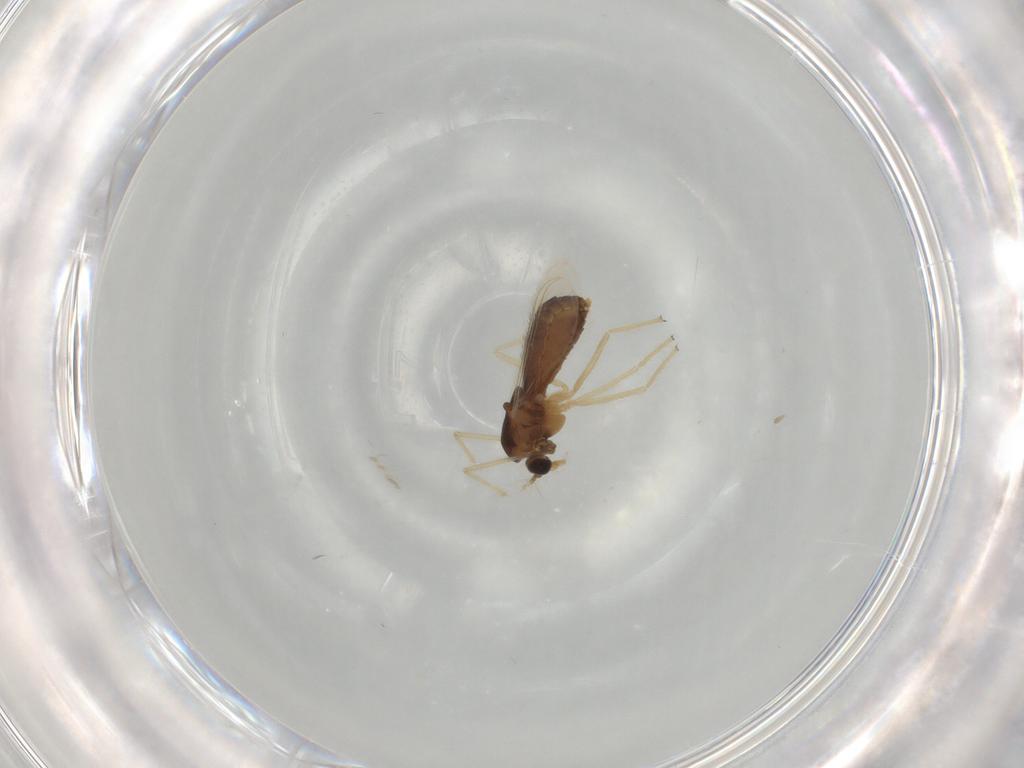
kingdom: Animalia
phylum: Arthropoda
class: Insecta
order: Diptera
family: Chironomidae
